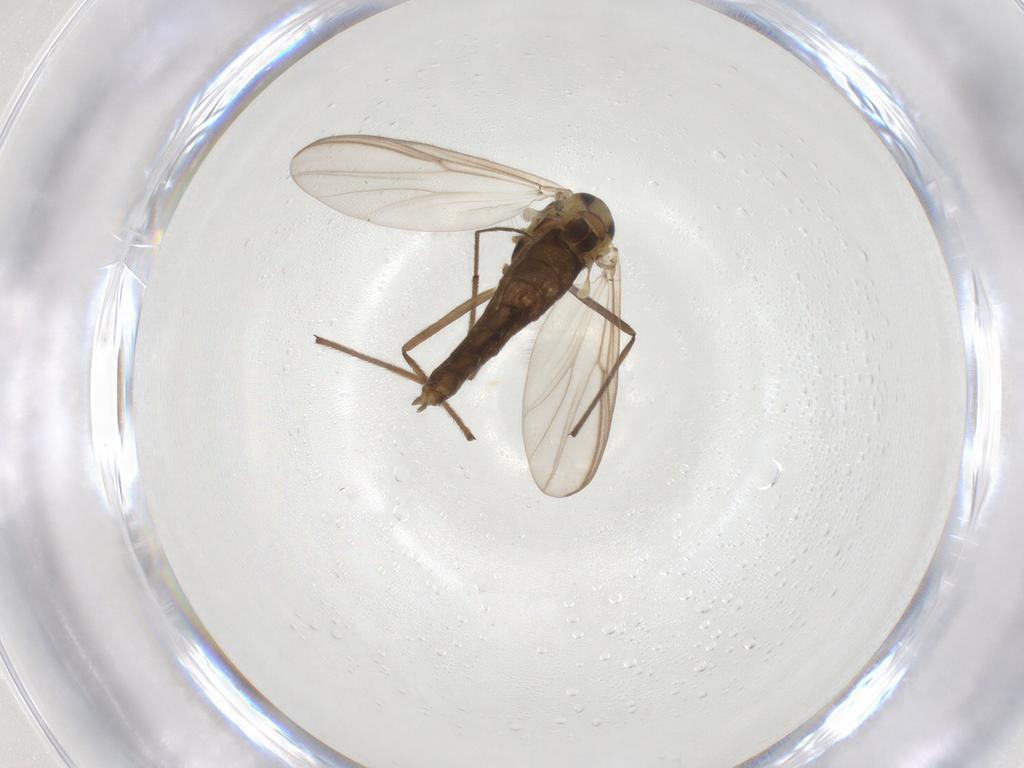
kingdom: Animalia
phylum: Arthropoda
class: Insecta
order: Diptera
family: Chironomidae
